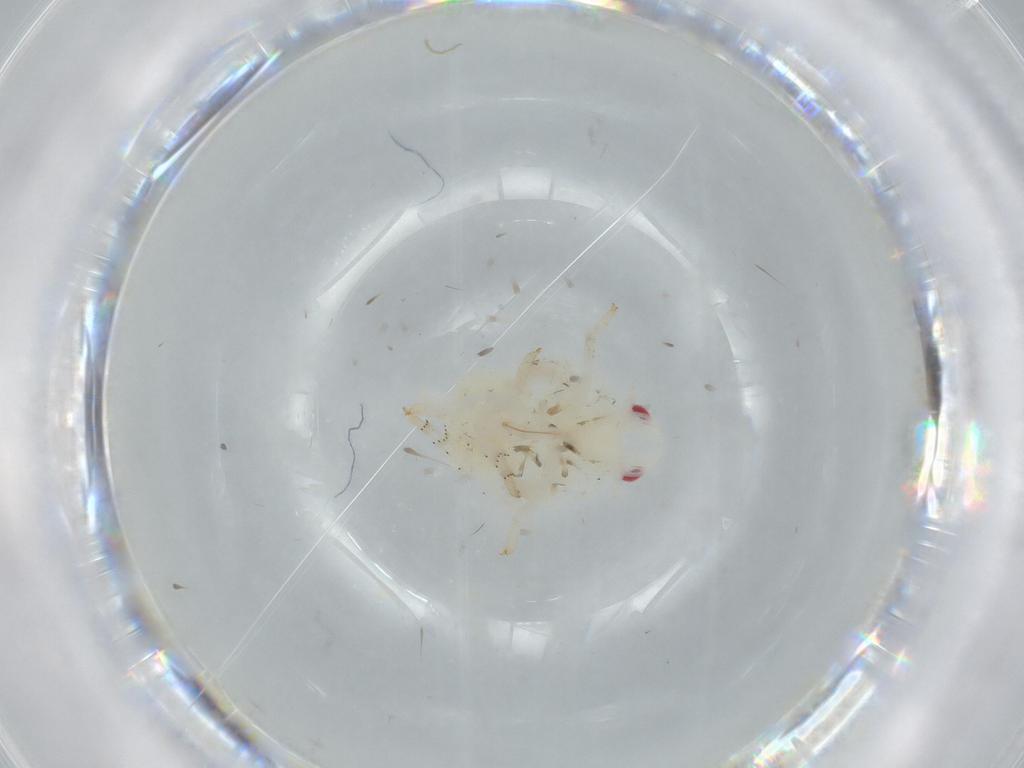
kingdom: Animalia
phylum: Arthropoda
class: Insecta
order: Hemiptera
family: Flatidae
